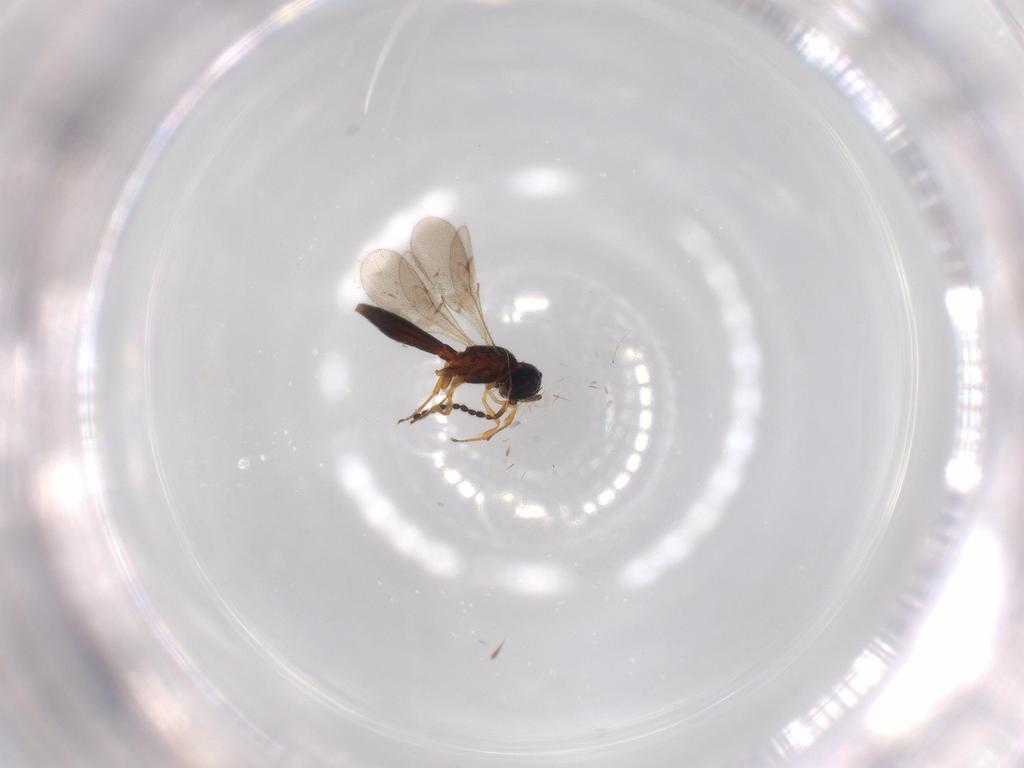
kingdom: Animalia
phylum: Arthropoda
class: Insecta
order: Hymenoptera
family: Scelionidae
